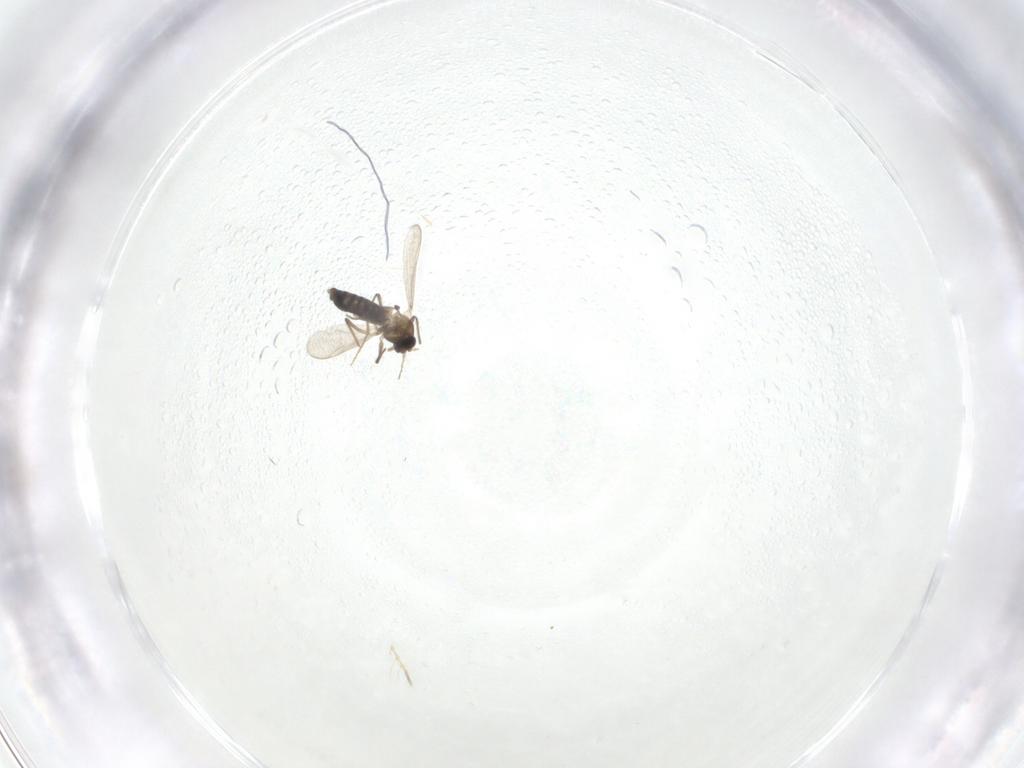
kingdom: Animalia
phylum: Arthropoda
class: Insecta
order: Diptera
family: Chironomidae
